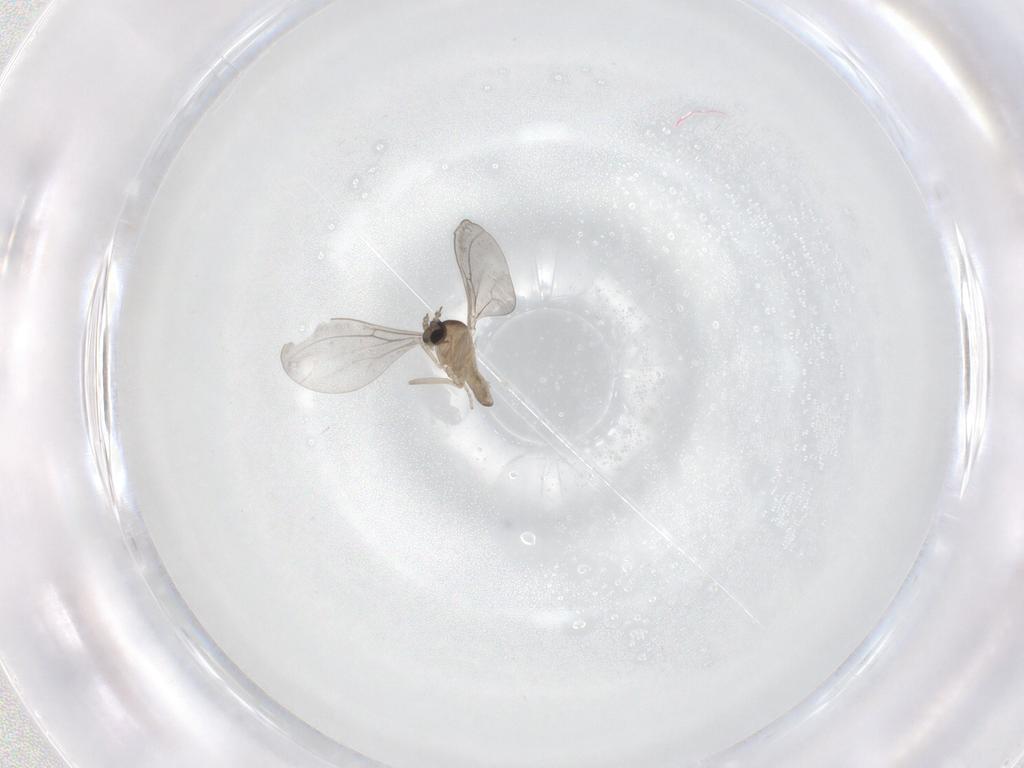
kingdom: Animalia
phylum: Arthropoda
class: Insecta
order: Diptera
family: Cecidomyiidae
